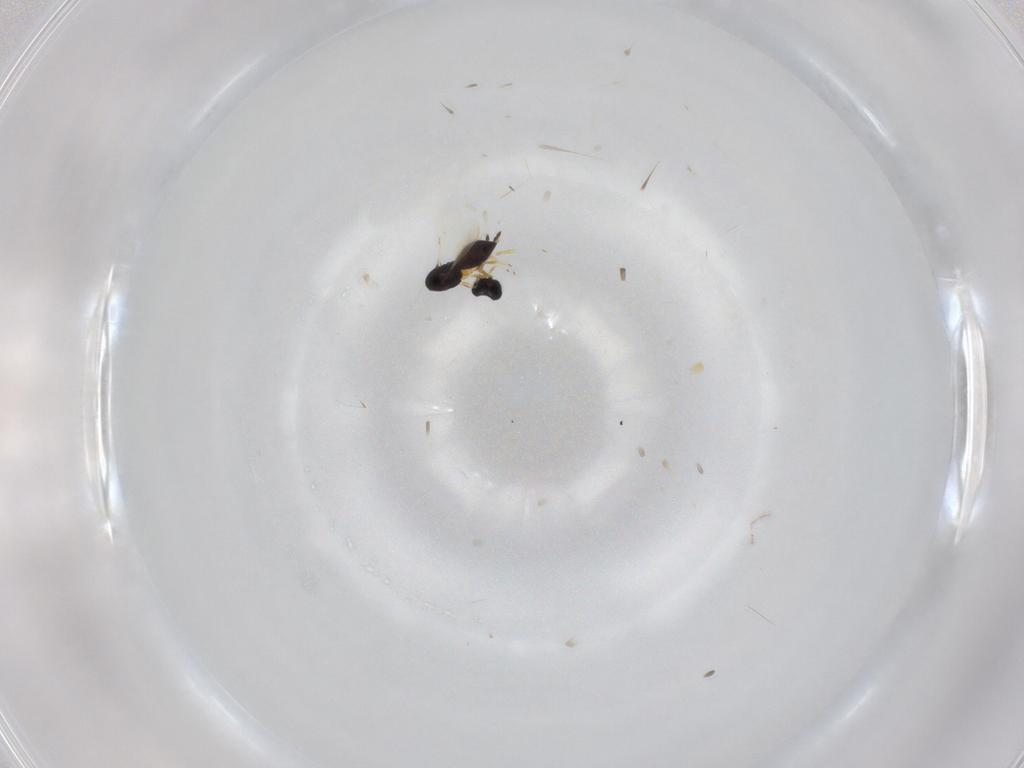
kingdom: Animalia
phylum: Arthropoda
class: Insecta
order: Hymenoptera
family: Scelionidae
